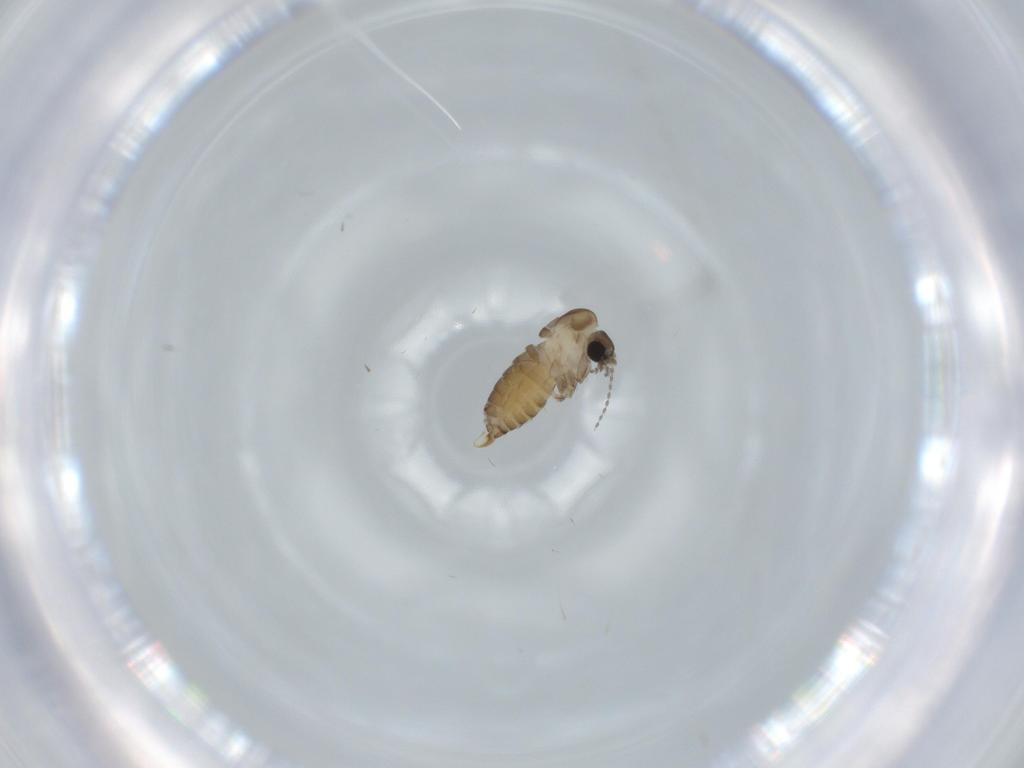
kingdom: Animalia
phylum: Arthropoda
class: Insecta
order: Diptera
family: Psychodidae
